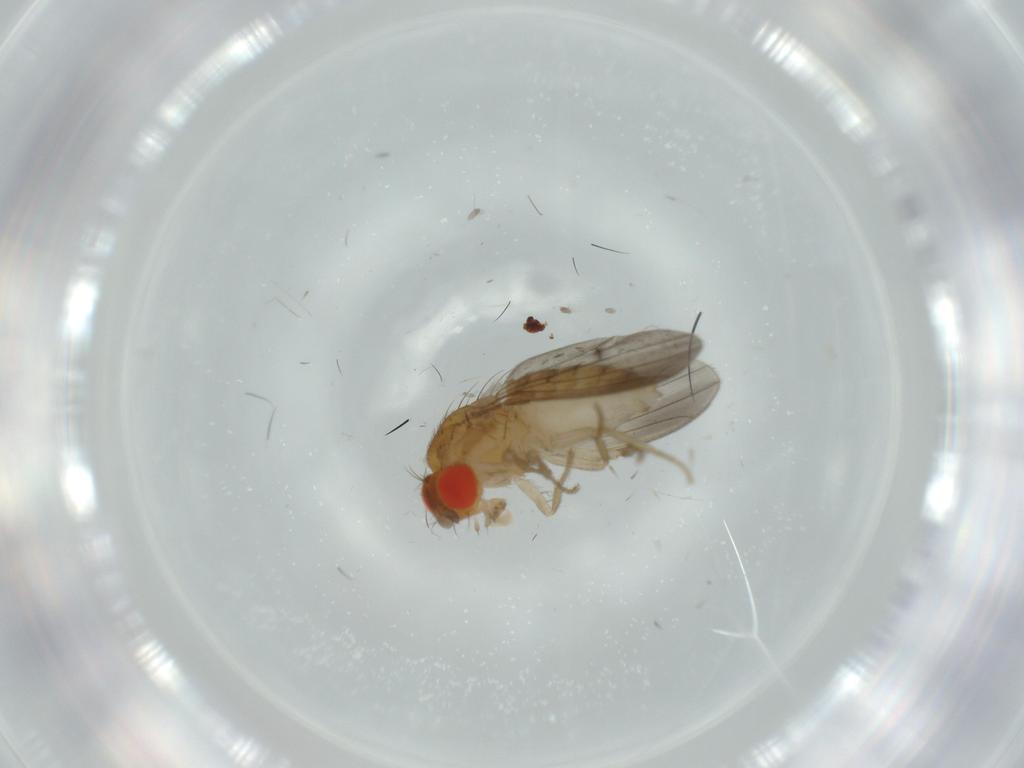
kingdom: Animalia
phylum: Arthropoda
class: Insecta
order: Diptera
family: Drosophilidae
